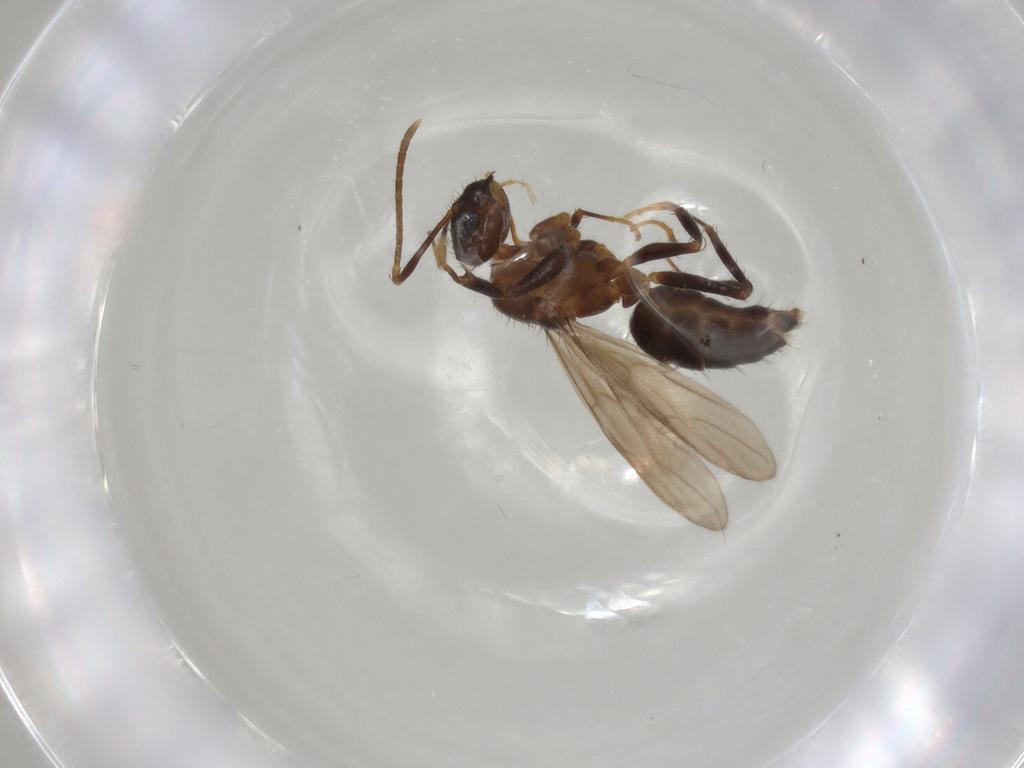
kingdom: Animalia
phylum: Arthropoda
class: Insecta
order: Hymenoptera
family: Formicidae
